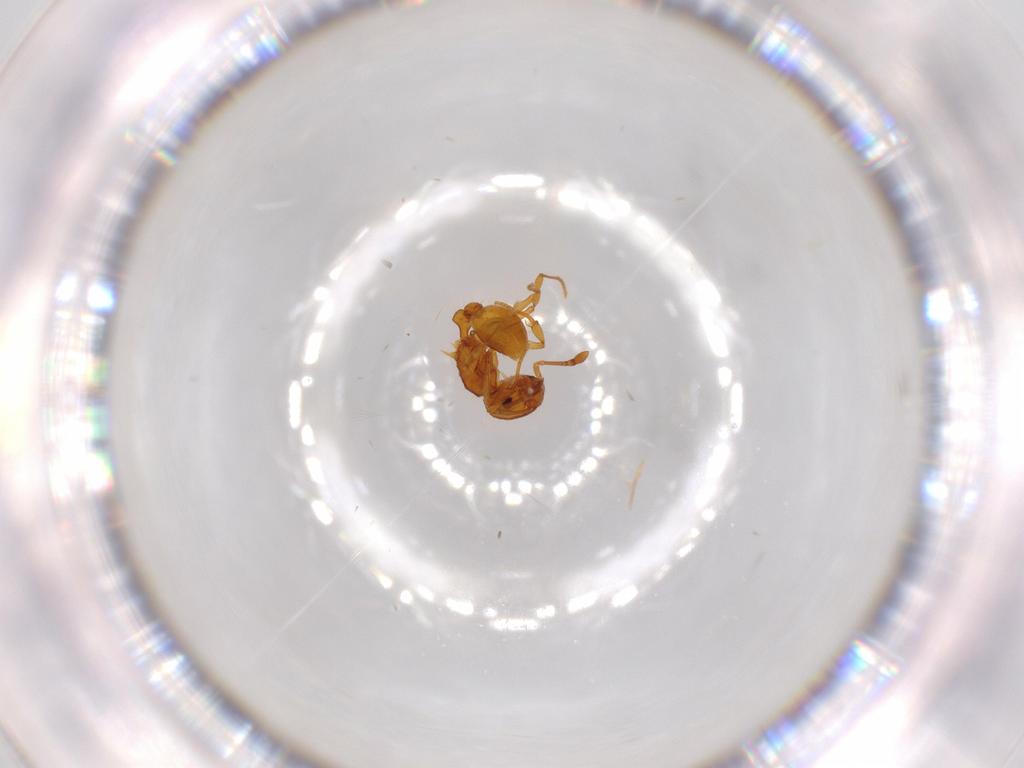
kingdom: Animalia
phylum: Arthropoda
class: Insecta
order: Hymenoptera
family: Formicidae
